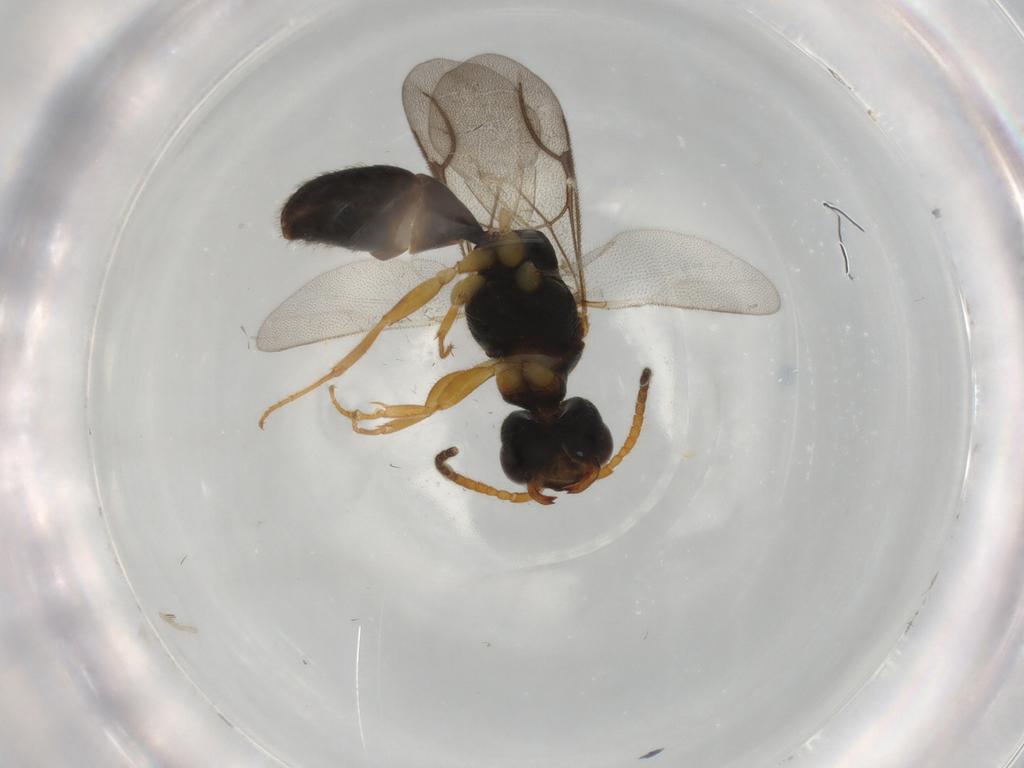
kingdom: Animalia
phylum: Arthropoda
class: Insecta
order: Hymenoptera
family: Bethylidae
